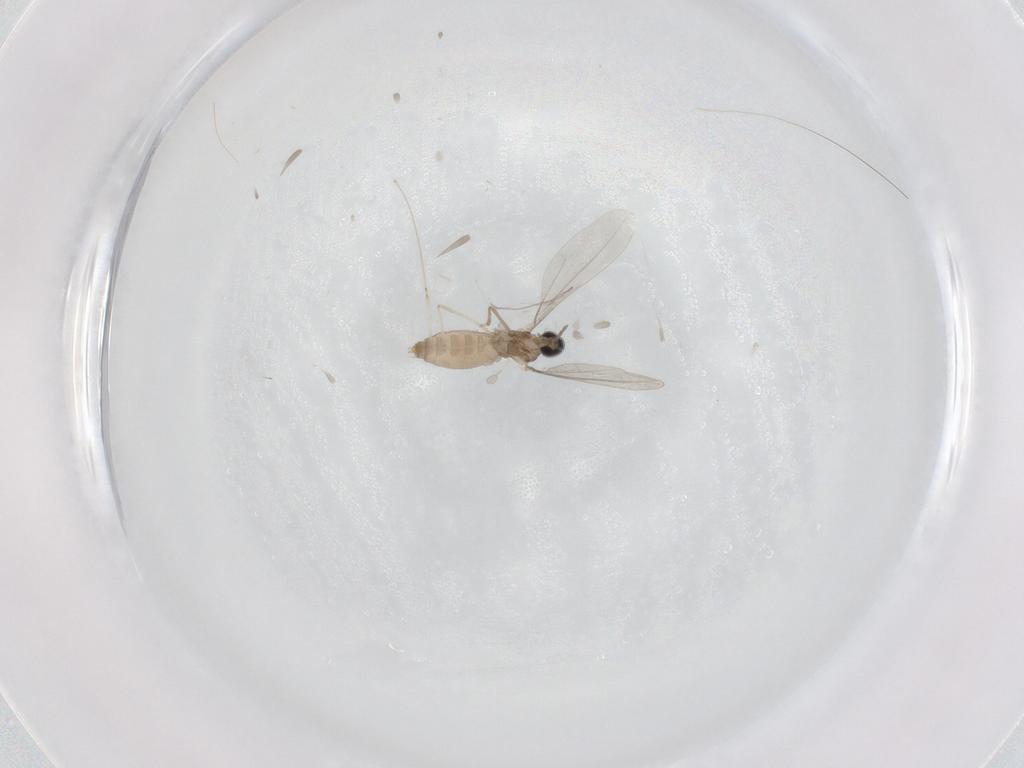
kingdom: Animalia
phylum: Arthropoda
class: Insecta
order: Diptera
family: Cecidomyiidae
